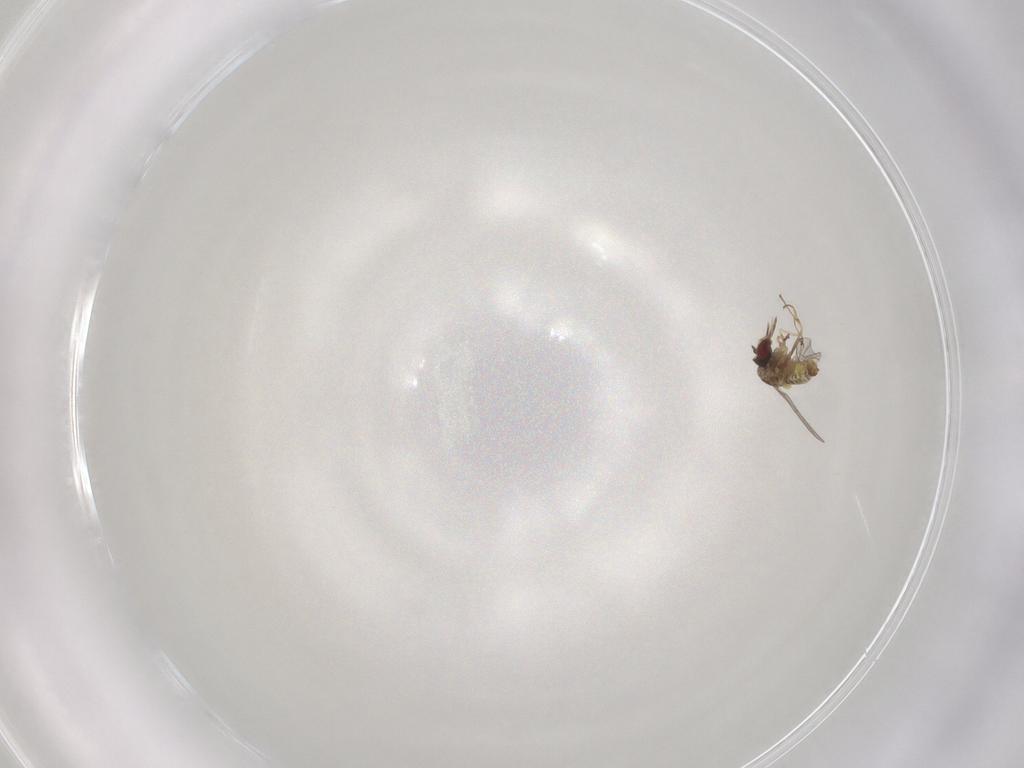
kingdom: Animalia
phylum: Arthropoda
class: Insecta
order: Diptera
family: Mythicomyiidae
